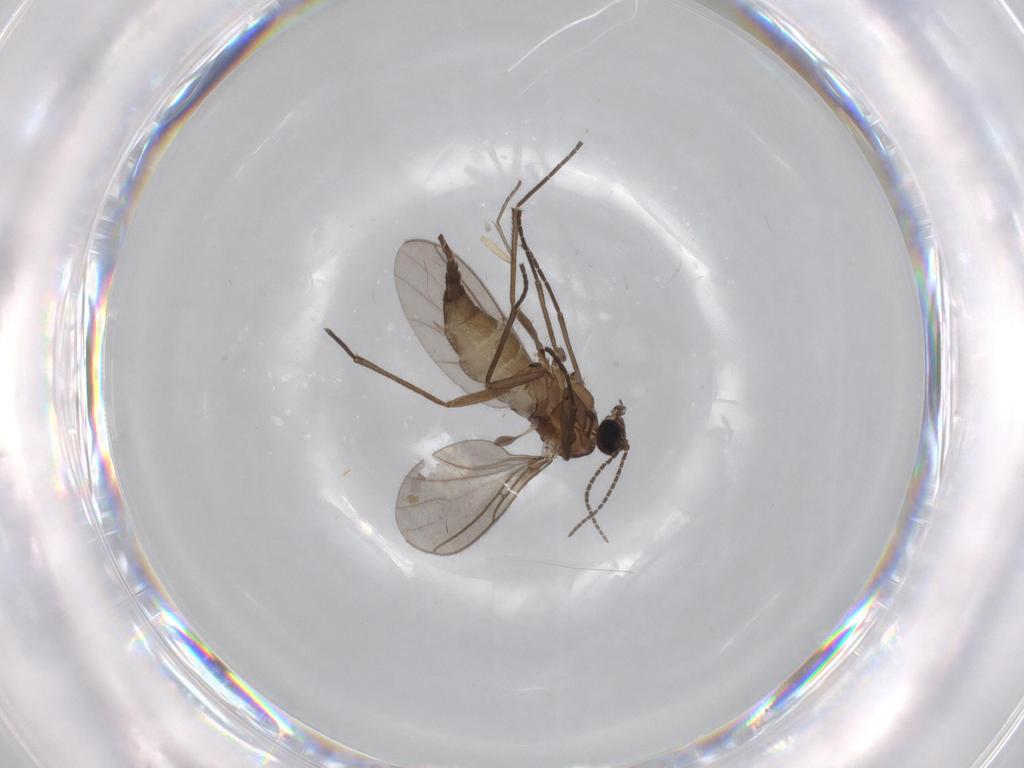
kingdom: Animalia
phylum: Arthropoda
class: Insecta
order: Diptera
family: Sciaridae
